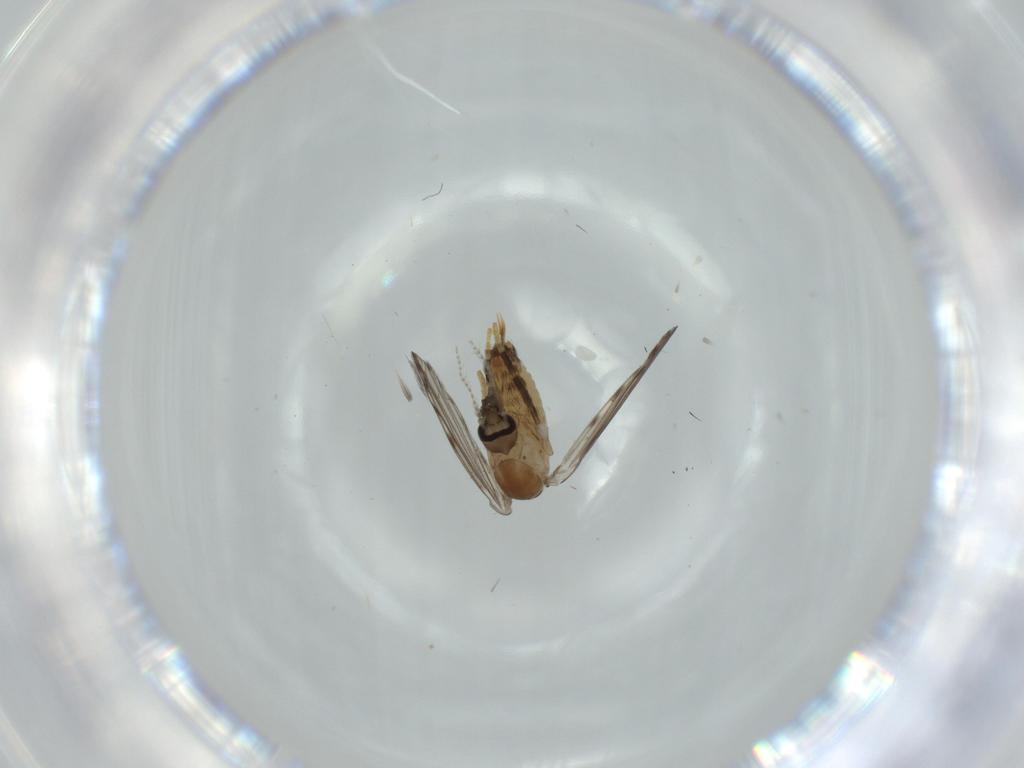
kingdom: Animalia
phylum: Arthropoda
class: Insecta
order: Diptera
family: Psychodidae
